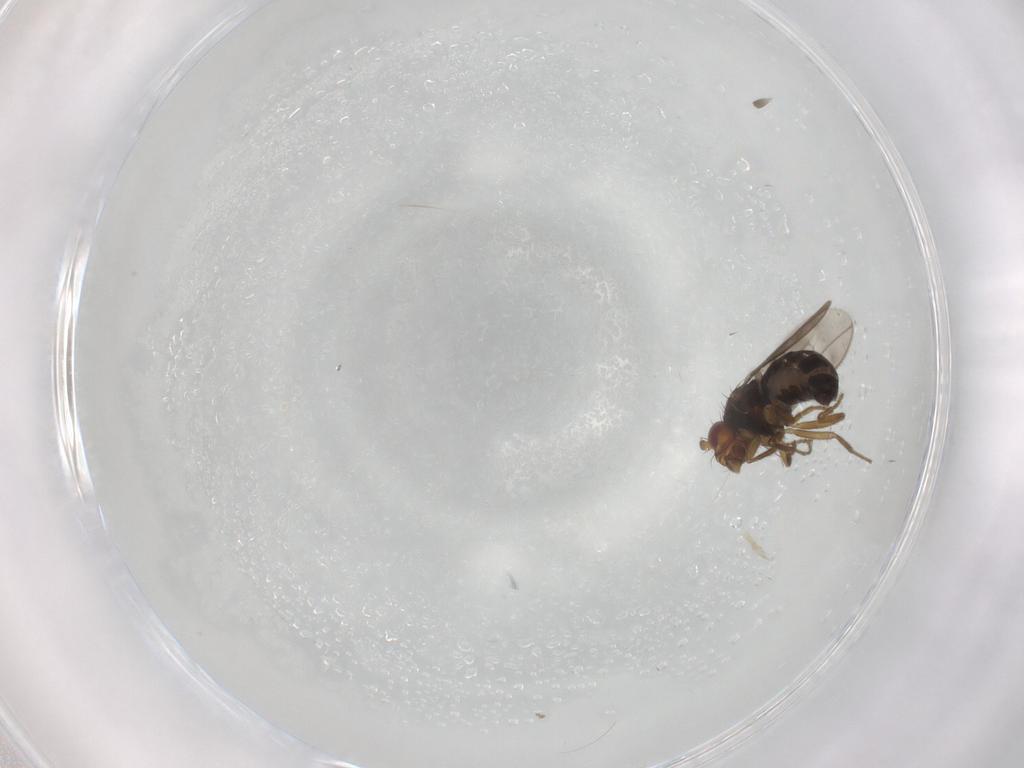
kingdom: Animalia
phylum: Arthropoda
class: Insecta
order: Diptera
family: Sphaeroceridae
